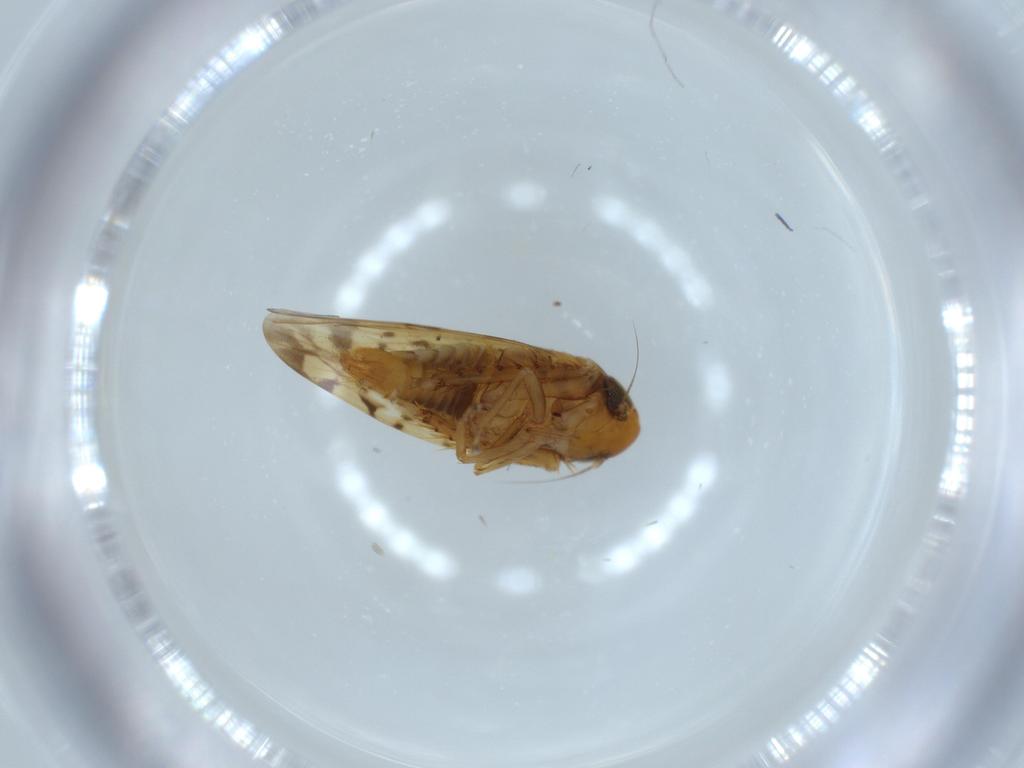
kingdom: Animalia
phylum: Arthropoda
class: Insecta
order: Hemiptera
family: Cicadellidae
